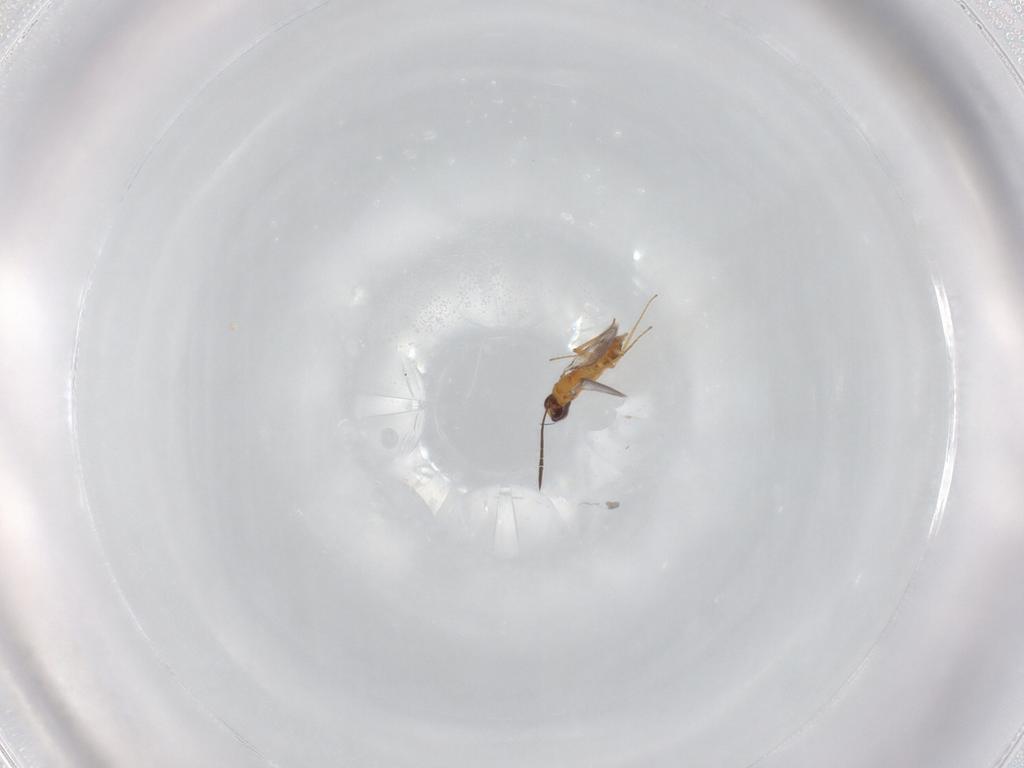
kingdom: Animalia
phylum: Arthropoda
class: Insecta
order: Hymenoptera
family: Mymaridae
